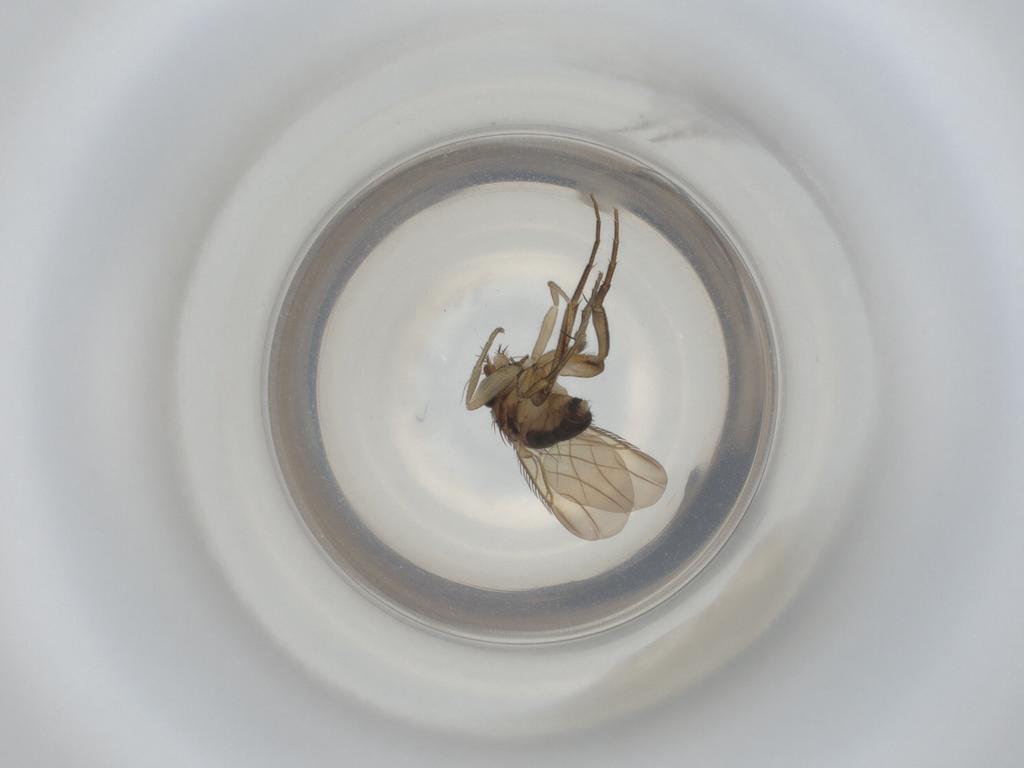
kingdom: Animalia
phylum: Arthropoda
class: Insecta
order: Diptera
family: Phoridae
